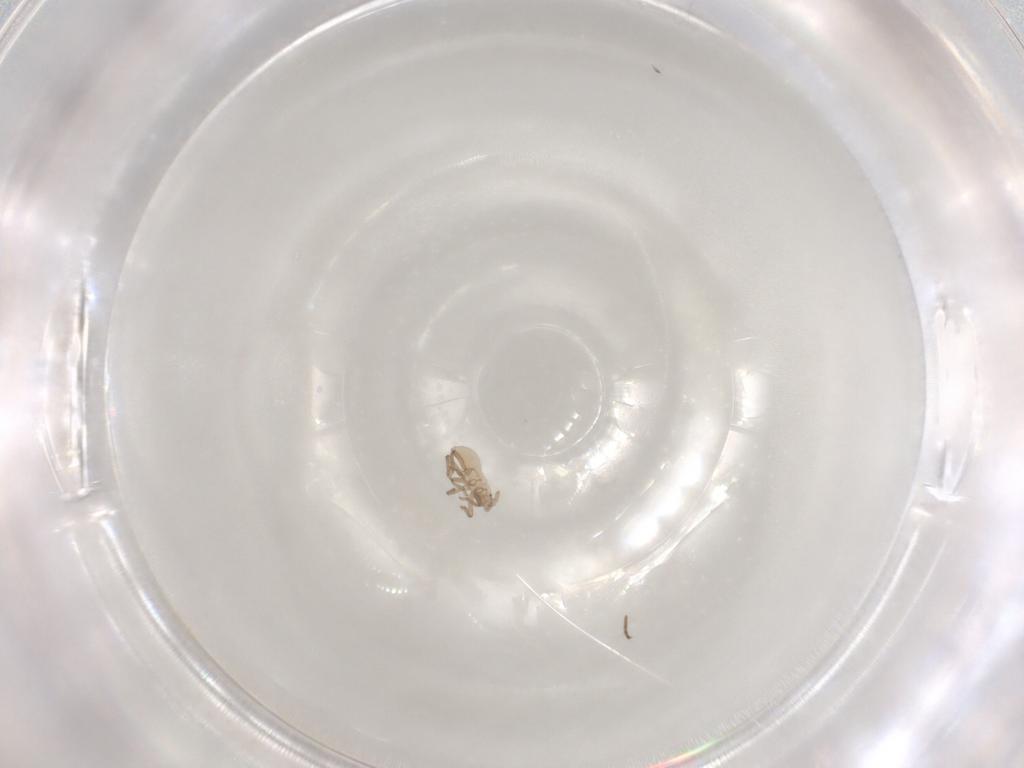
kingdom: Animalia
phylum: Arthropoda
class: Insecta
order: Hemiptera
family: Aphididae
